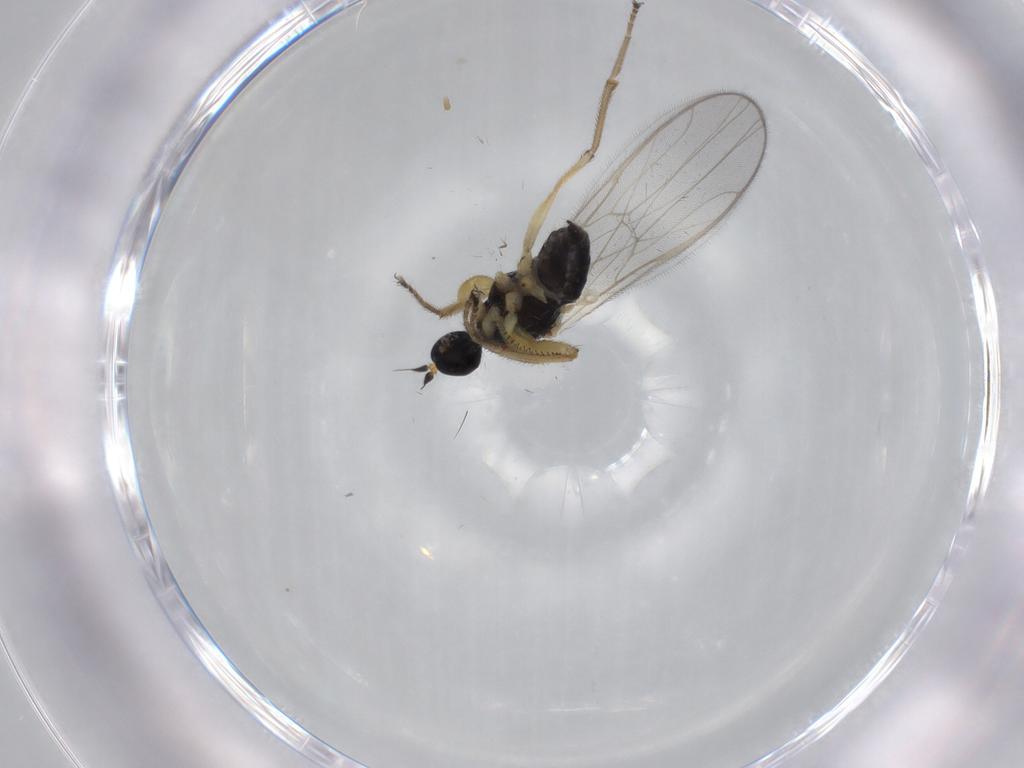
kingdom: Animalia
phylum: Arthropoda
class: Insecta
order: Diptera
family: Hybotidae
